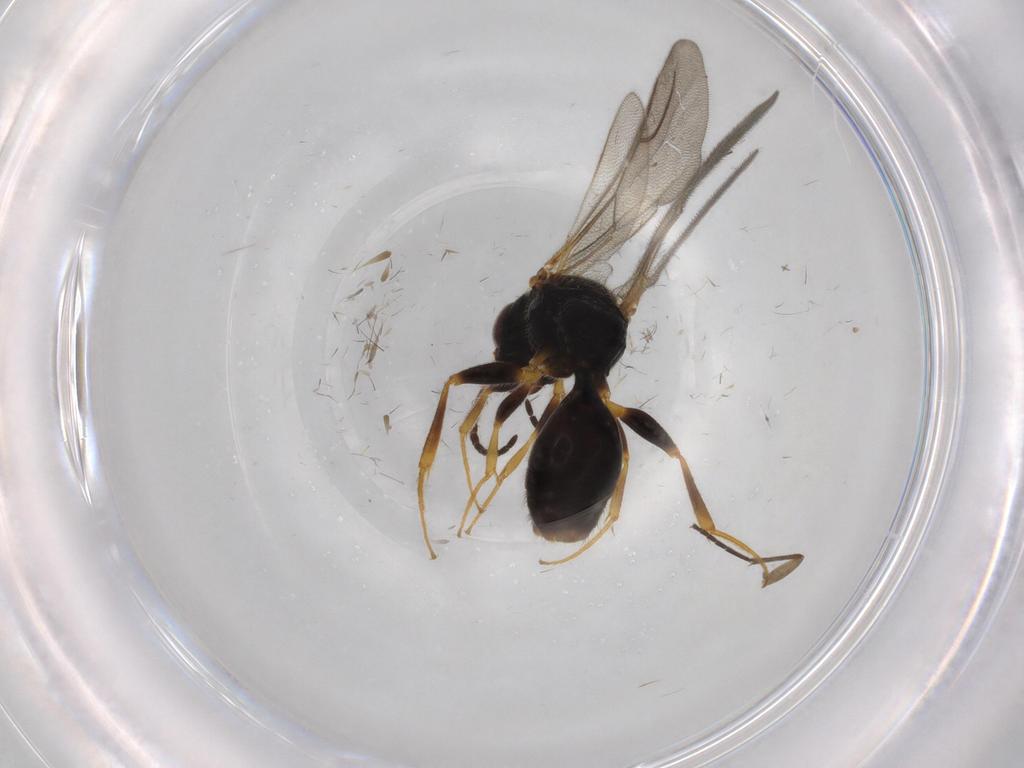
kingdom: Animalia
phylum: Arthropoda
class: Insecta
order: Hymenoptera
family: Bethylidae
